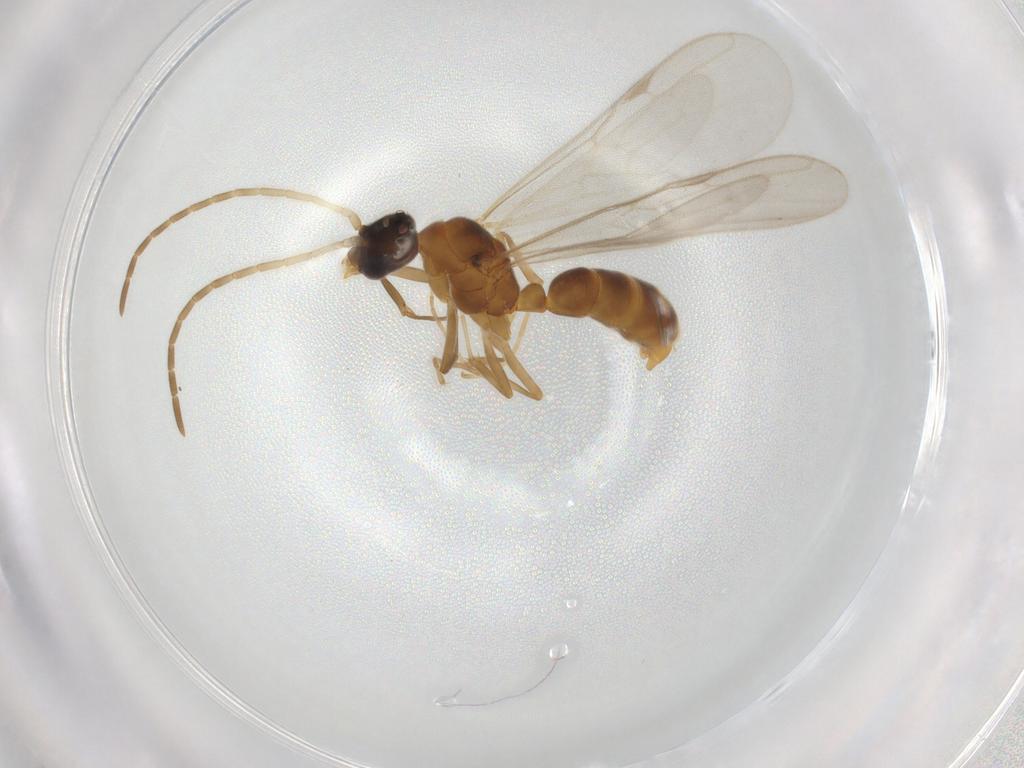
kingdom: Animalia
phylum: Arthropoda
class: Insecta
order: Hymenoptera
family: Formicidae
